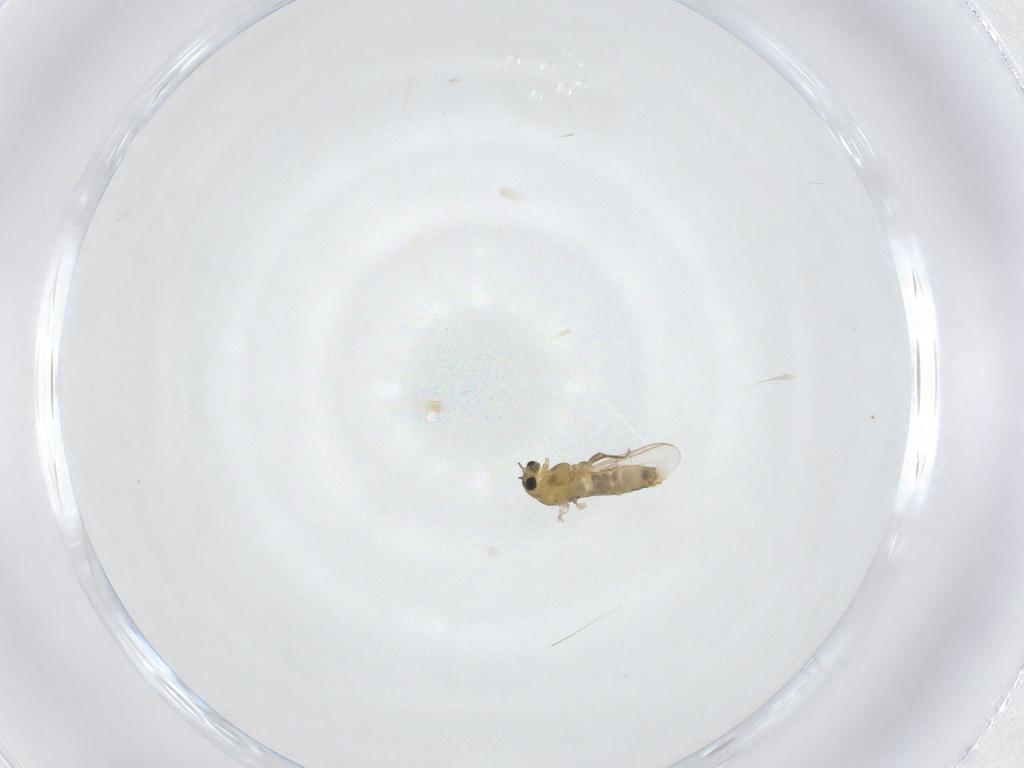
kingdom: Animalia
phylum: Arthropoda
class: Insecta
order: Diptera
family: Chironomidae
